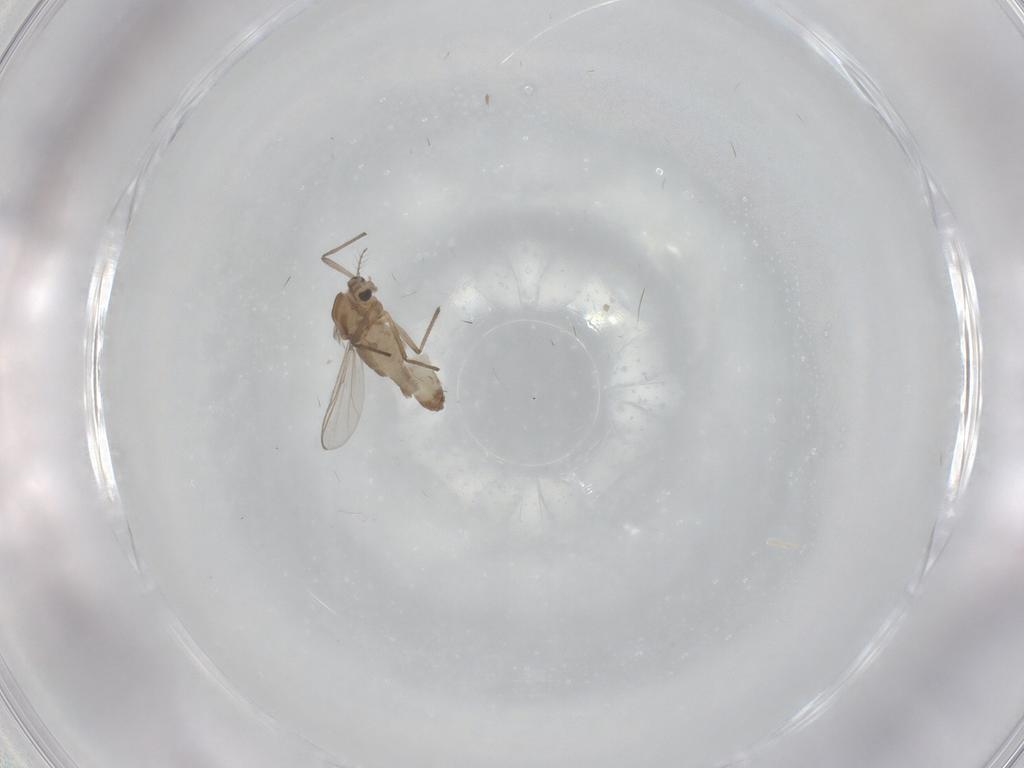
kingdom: Animalia
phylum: Arthropoda
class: Insecta
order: Diptera
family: Chironomidae
